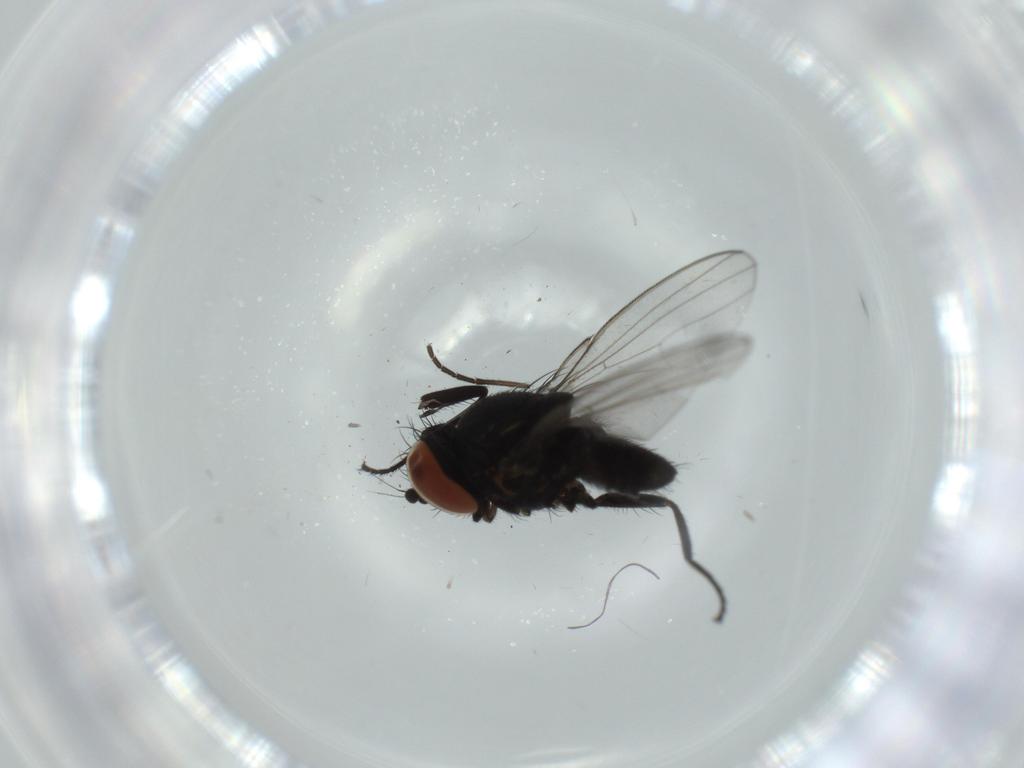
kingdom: Animalia
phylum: Arthropoda
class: Insecta
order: Diptera
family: Milichiidae
